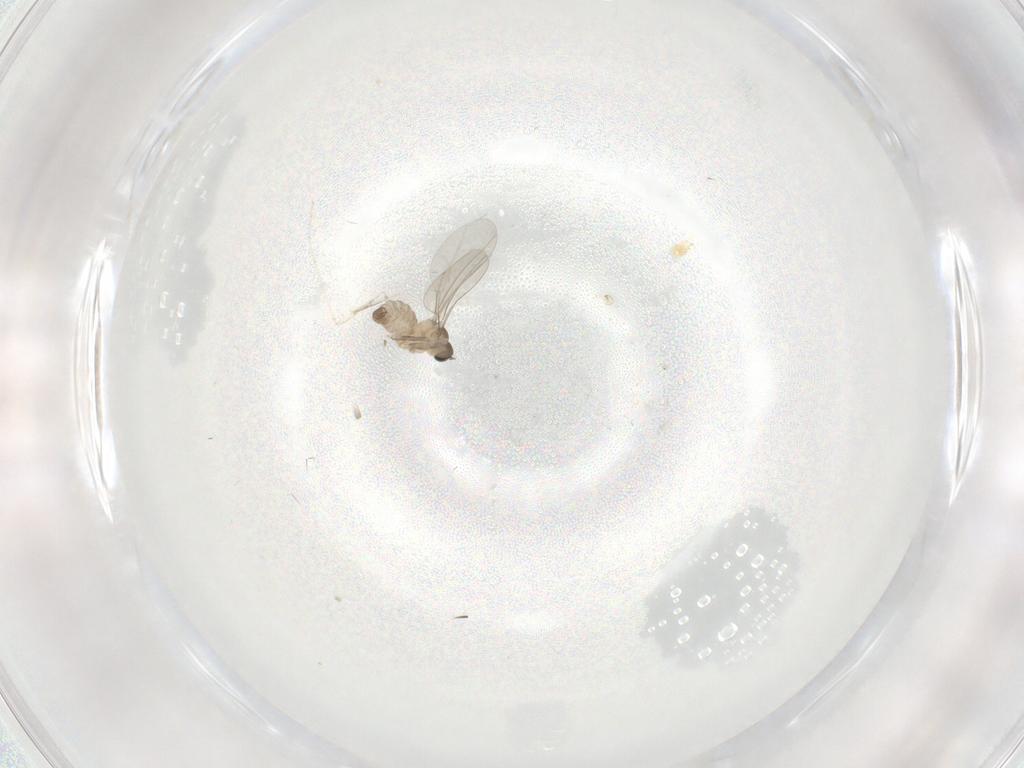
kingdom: Animalia
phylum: Arthropoda
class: Insecta
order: Diptera
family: Cecidomyiidae
